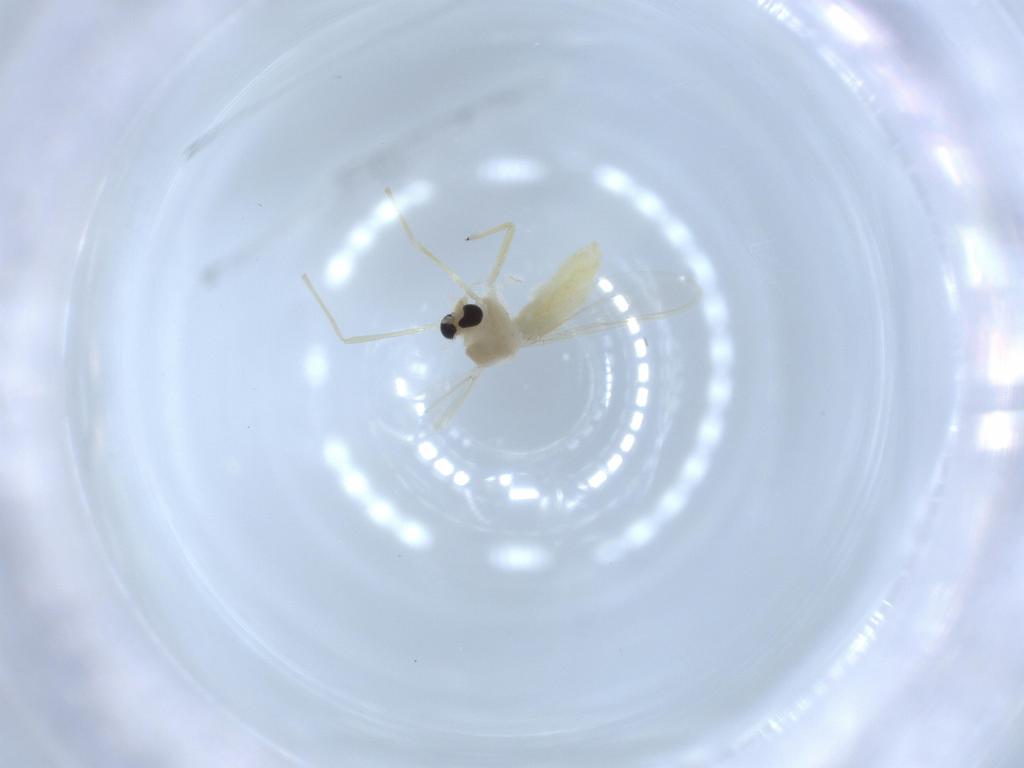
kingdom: Animalia
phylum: Arthropoda
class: Insecta
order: Diptera
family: Chironomidae
